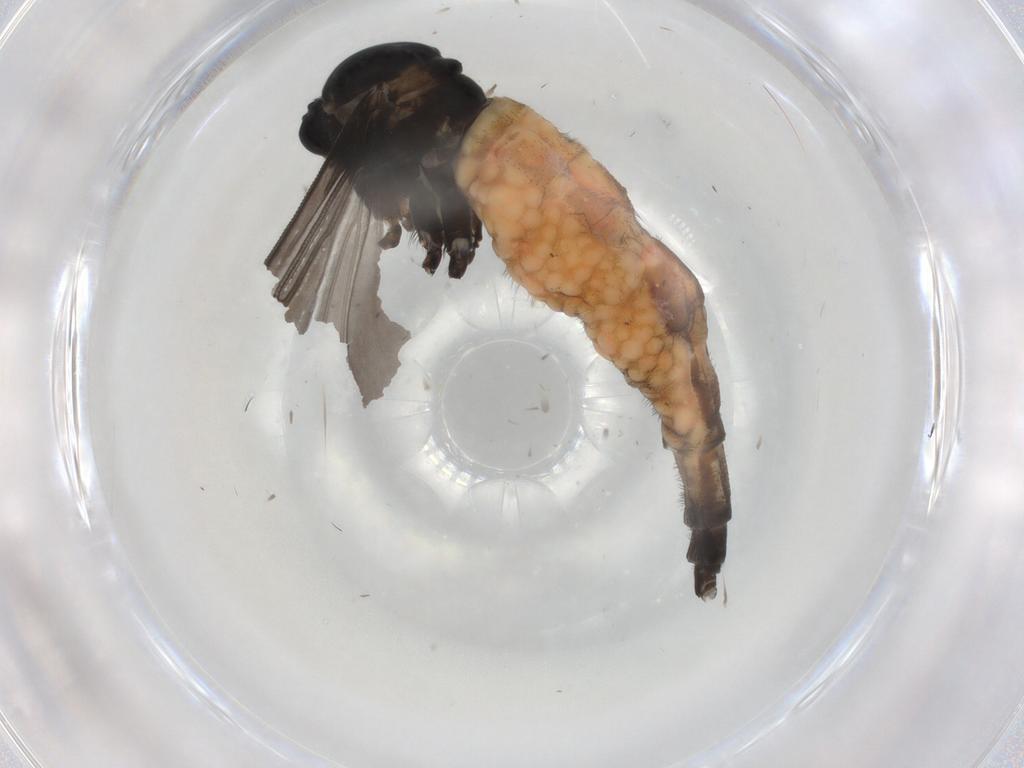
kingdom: Animalia
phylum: Arthropoda
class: Insecta
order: Diptera
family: Sciaridae
